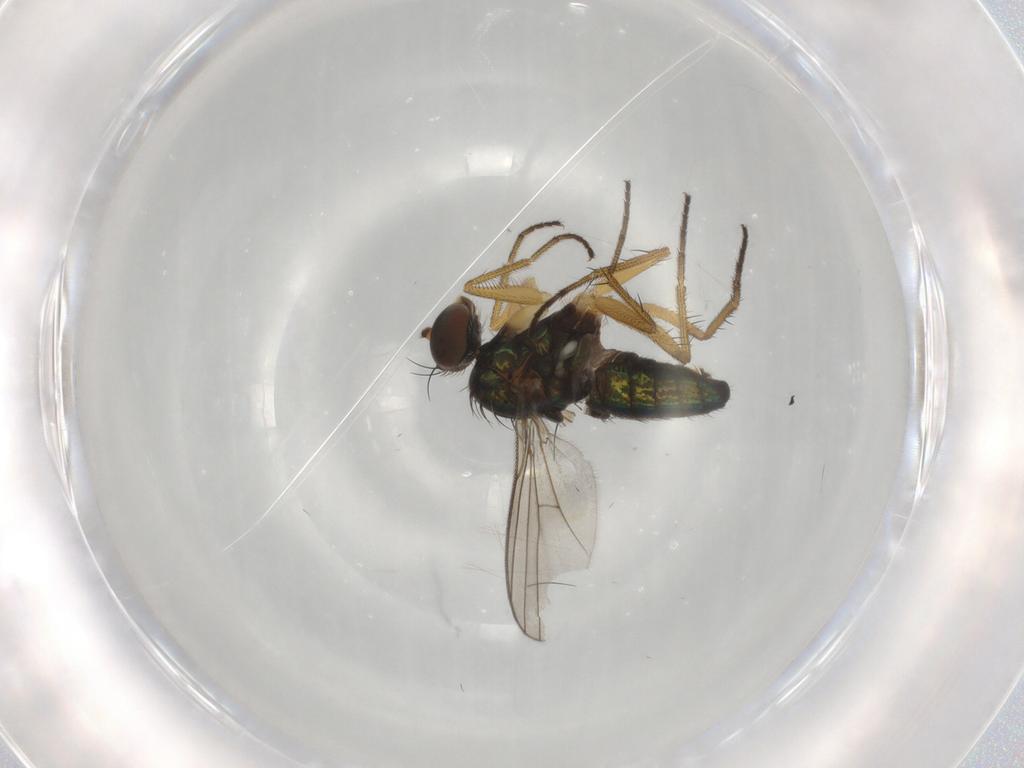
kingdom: Animalia
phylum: Arthropoda
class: Insecta
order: Diptera
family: Dolichopodidae
